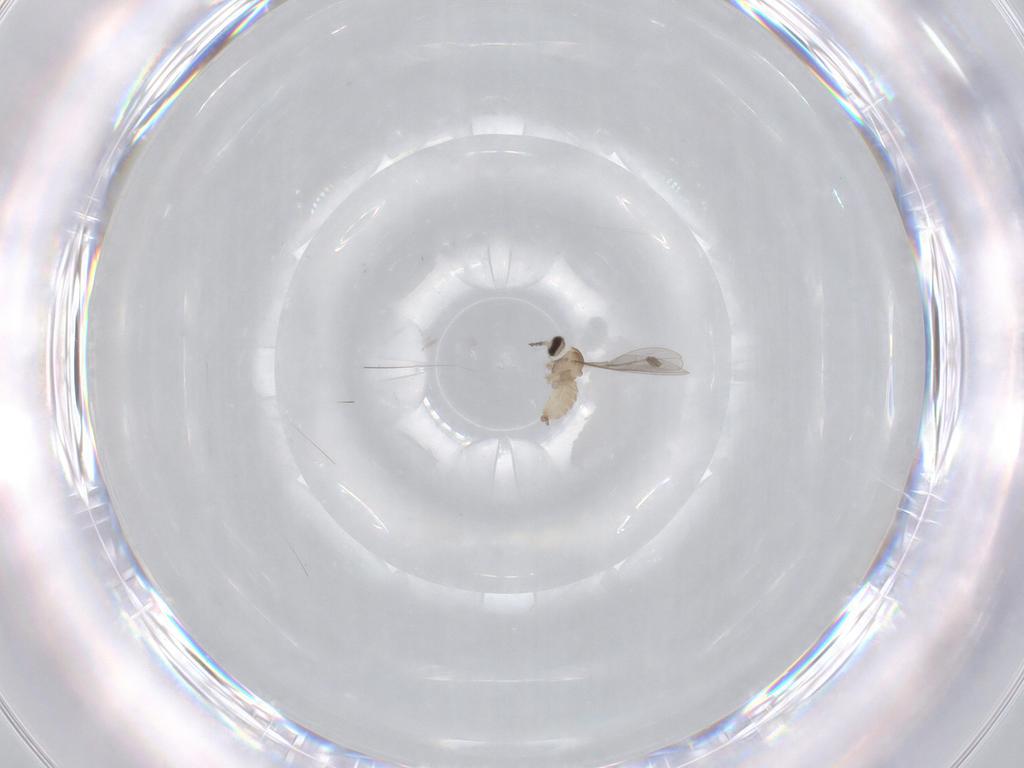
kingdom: Animalia
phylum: Arthropoda
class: Insecta
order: Diptera
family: Cecidomyiidae
